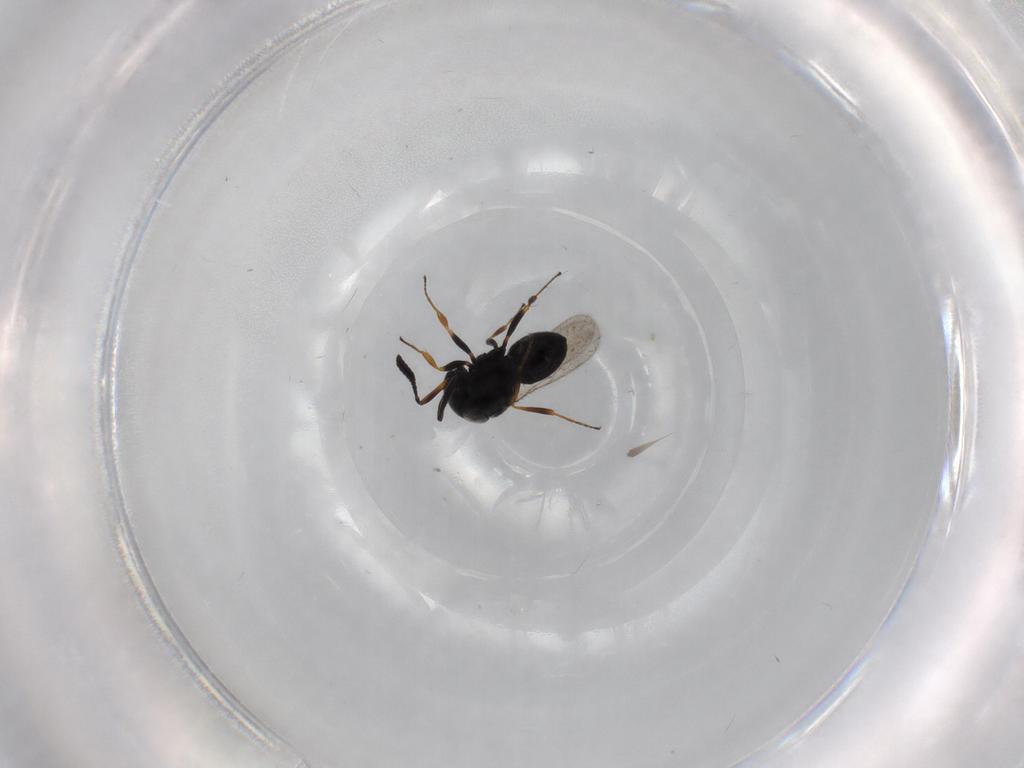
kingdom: Animalia
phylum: Arthropoda
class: Insecta
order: Hymenoptera
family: Scelionidae
